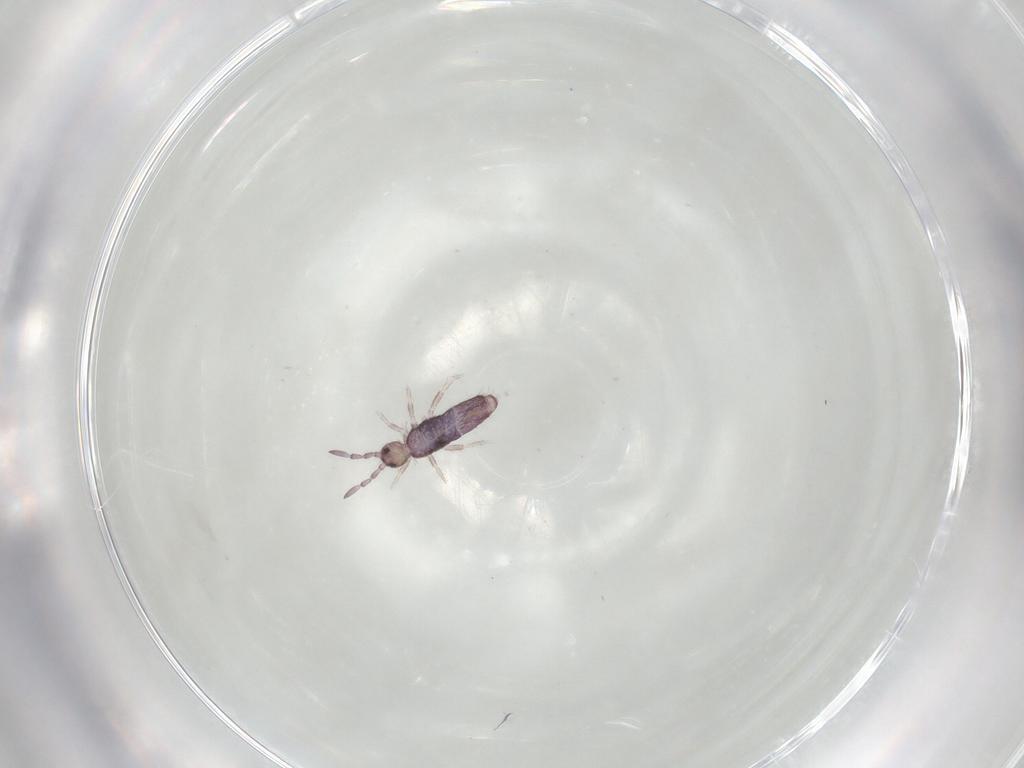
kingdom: Animalia
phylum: Arthropoda
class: Collembola
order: Entomobryomorpha
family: Entomobryidae
